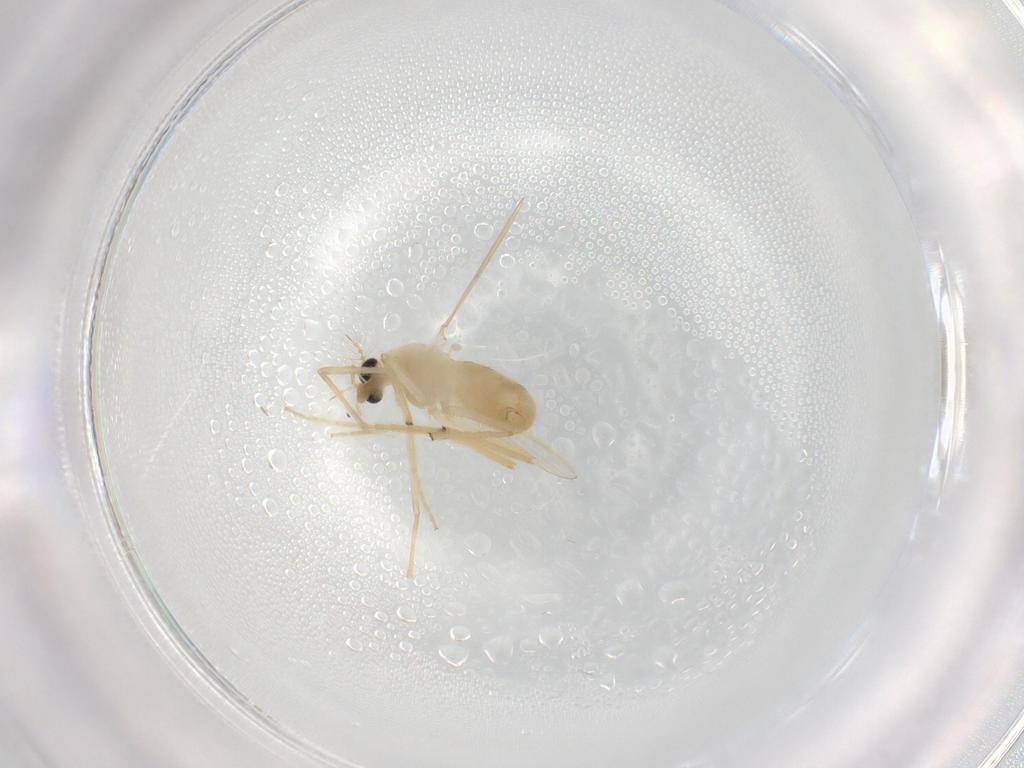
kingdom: Animalia
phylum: Arthropoda
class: Insecta
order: Diptera
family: Chironomidae
